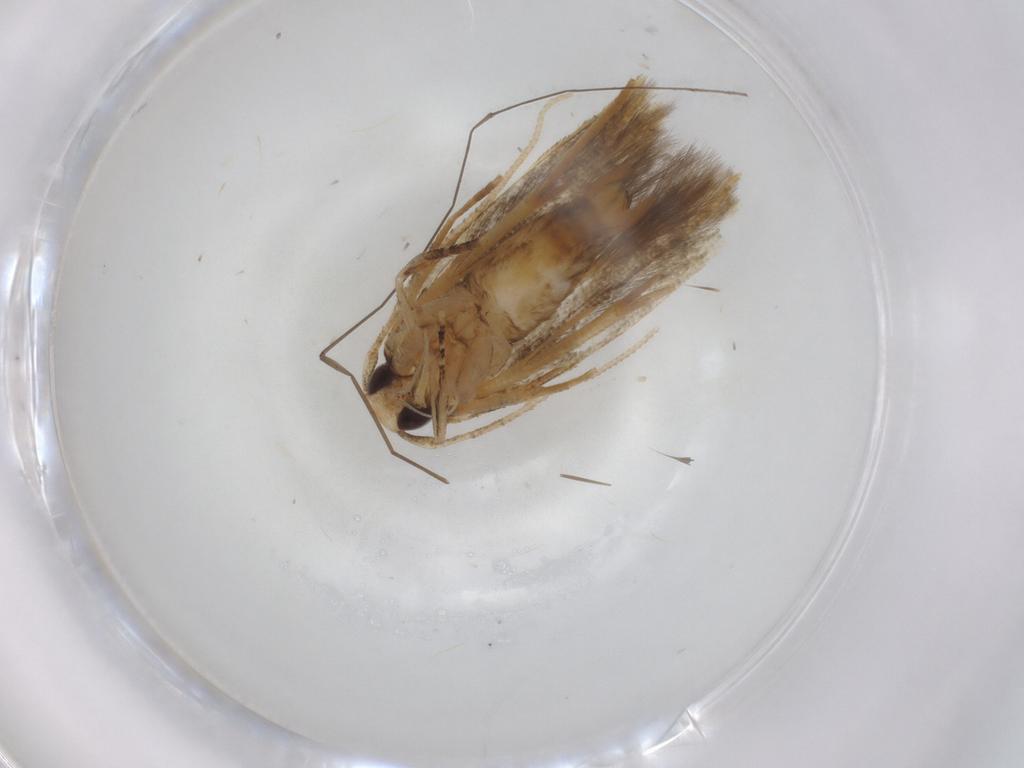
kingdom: Animalia
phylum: Arthropoda
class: Insecta
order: Lepidoptera
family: Cosmopterigidae
